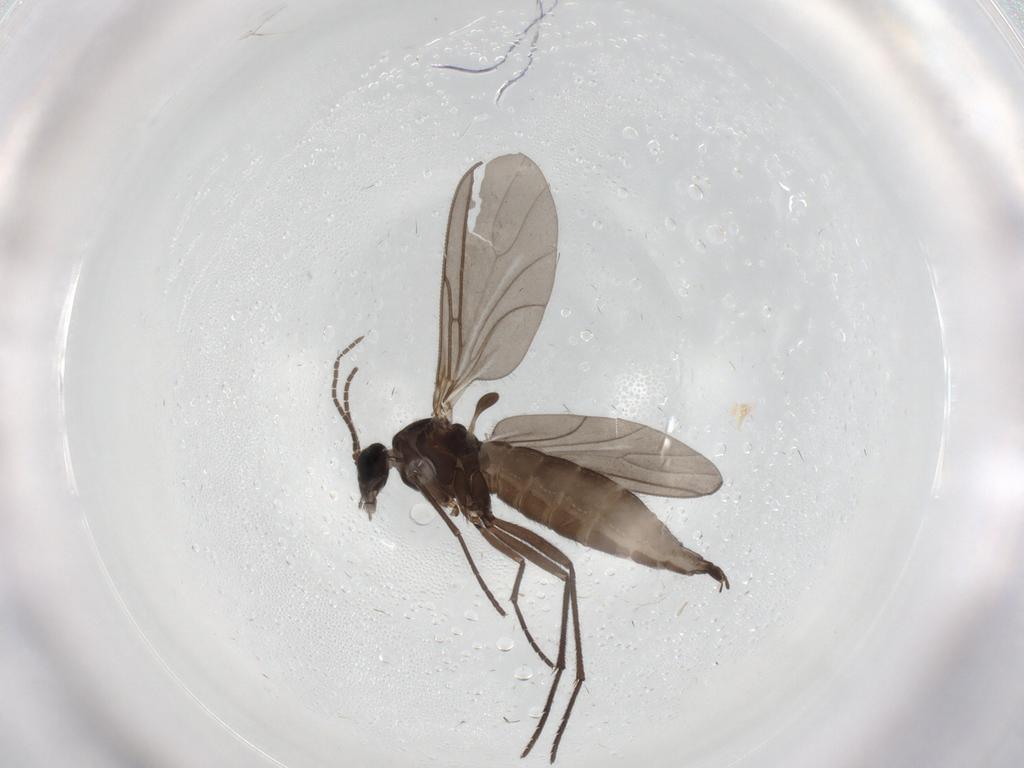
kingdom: Animalia
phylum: Arthropoda
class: Insecta
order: Diptera
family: Sciaridae
